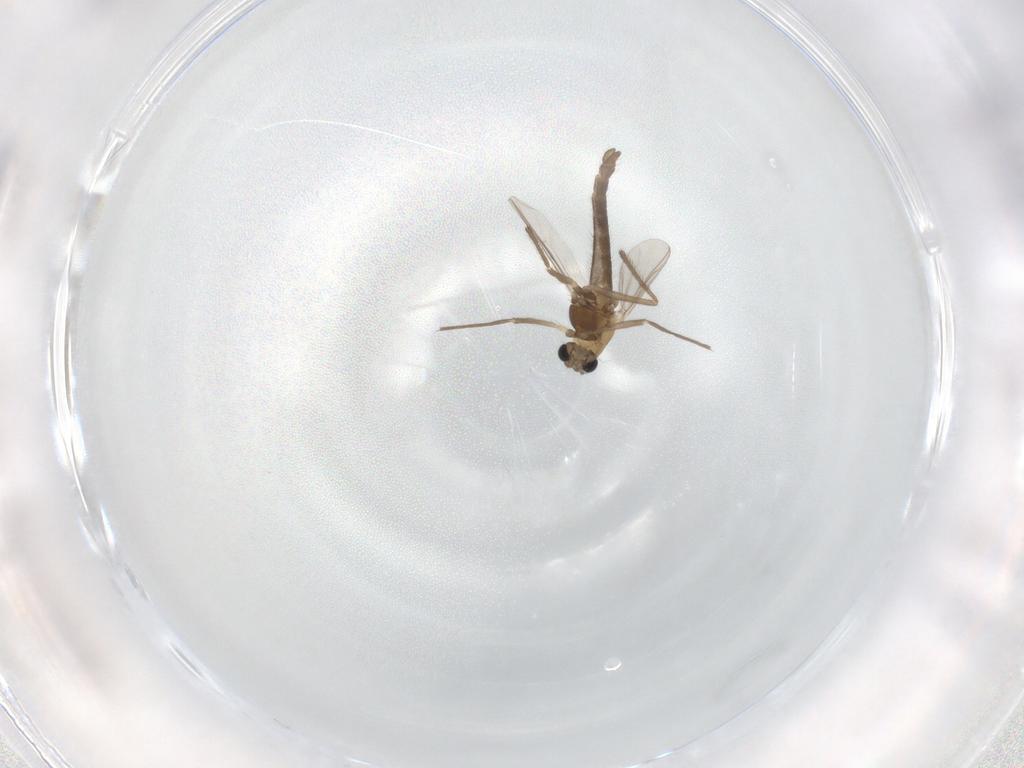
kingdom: Animalia
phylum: Arthropoda
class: Insecta
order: Diptera
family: Chironomidae
